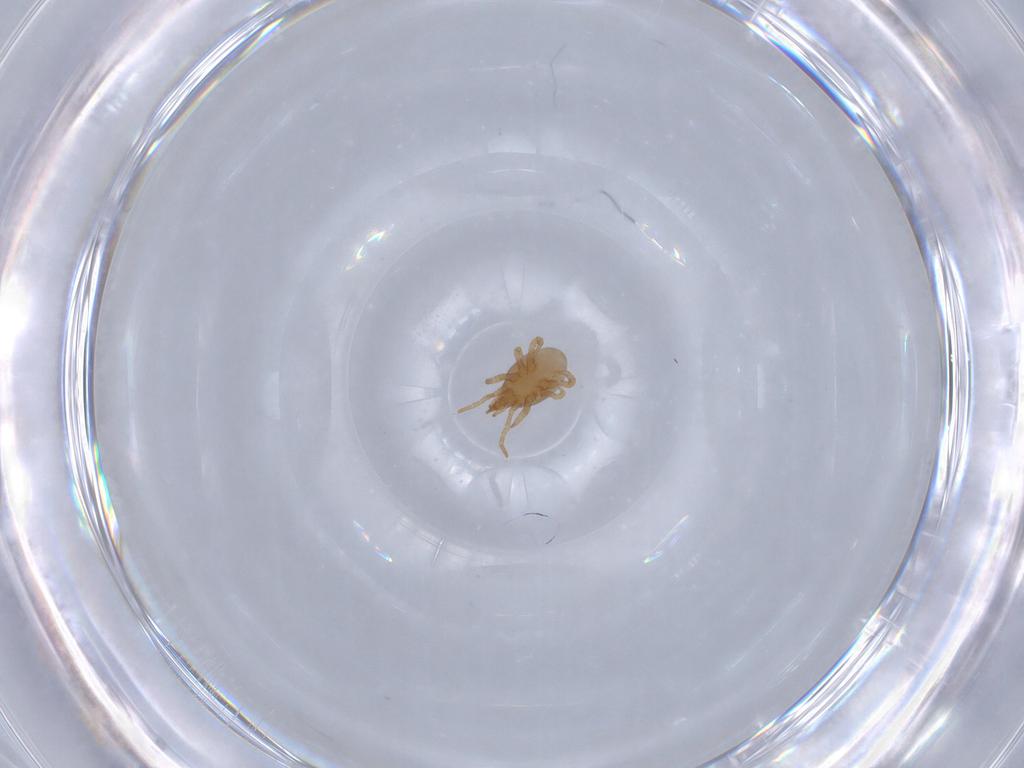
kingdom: Animalia
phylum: Arthropoda
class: Arachnida
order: Mesostigmata
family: Parasitidae
